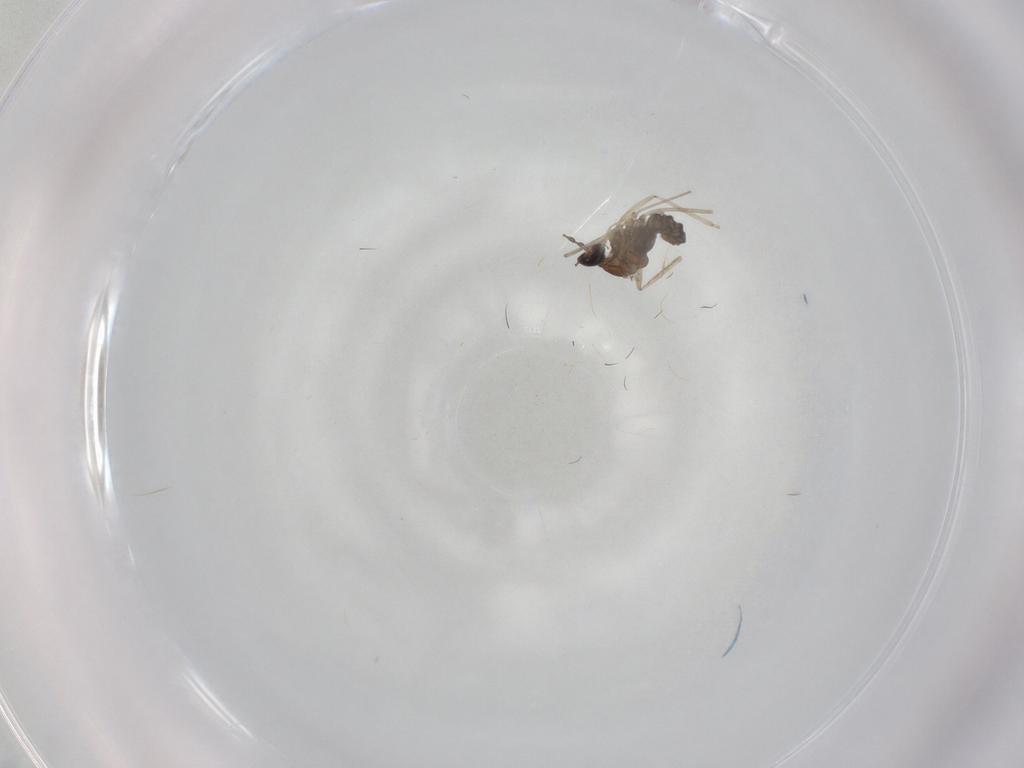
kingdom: Animalia
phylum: Arthropoda
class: Insecta
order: Diptera
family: Cecidomyiidae
